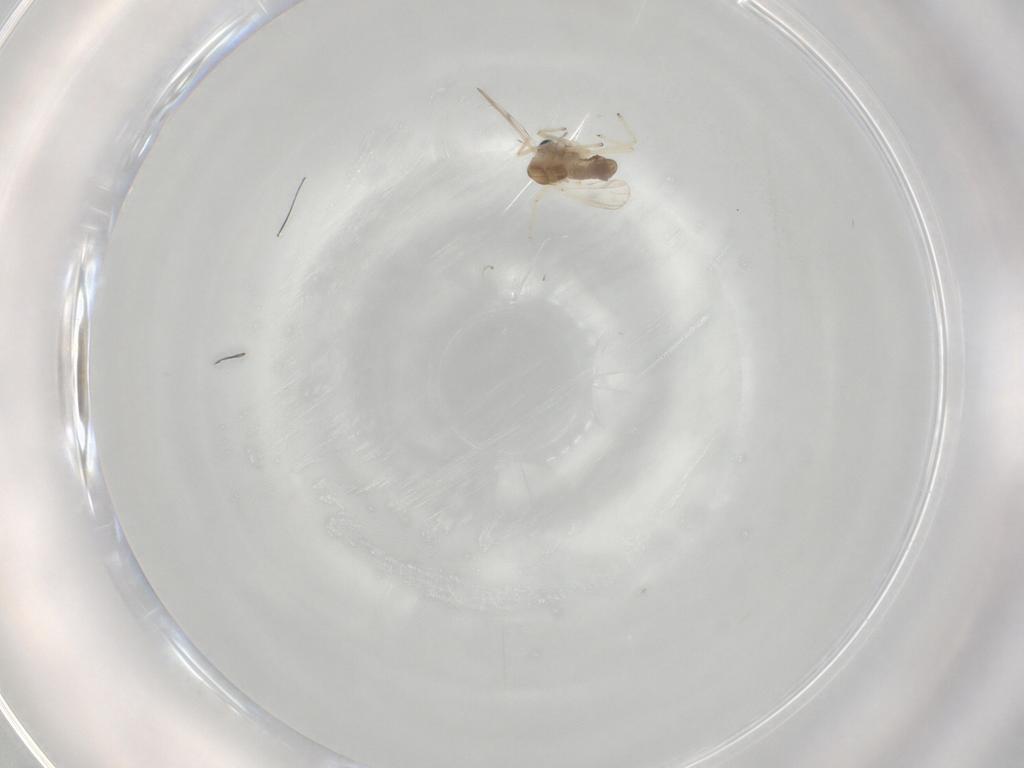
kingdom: Animalia
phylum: Arthropoda
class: Insecta
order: Diptera
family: Chironomidae
